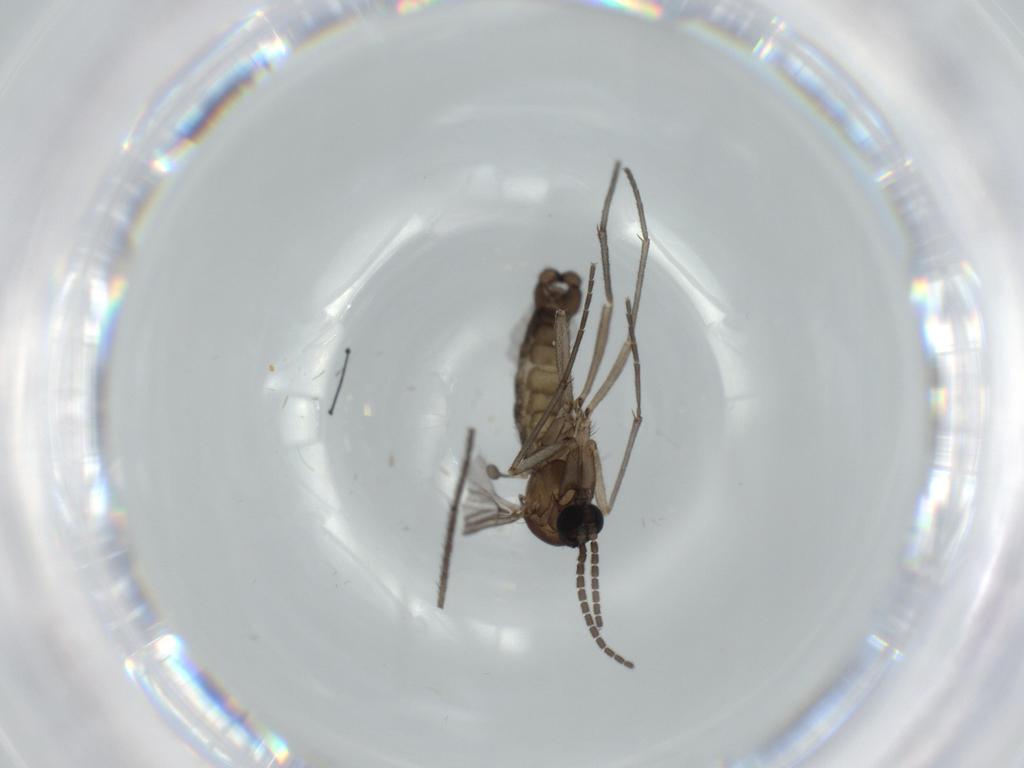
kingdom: Animalia
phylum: Arthropoda
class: Insecta
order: Diptera
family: Sciaridae
